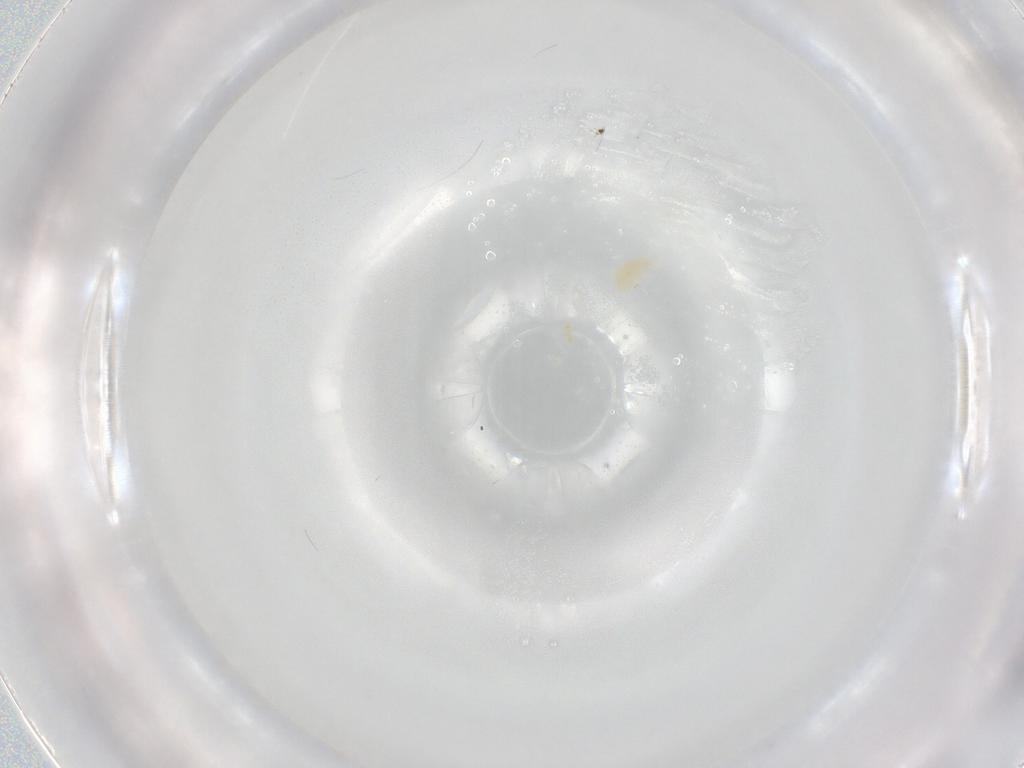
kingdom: Animalia
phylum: Arthropoda
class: Arachnida
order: Trombidiformes
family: Eupodidae
